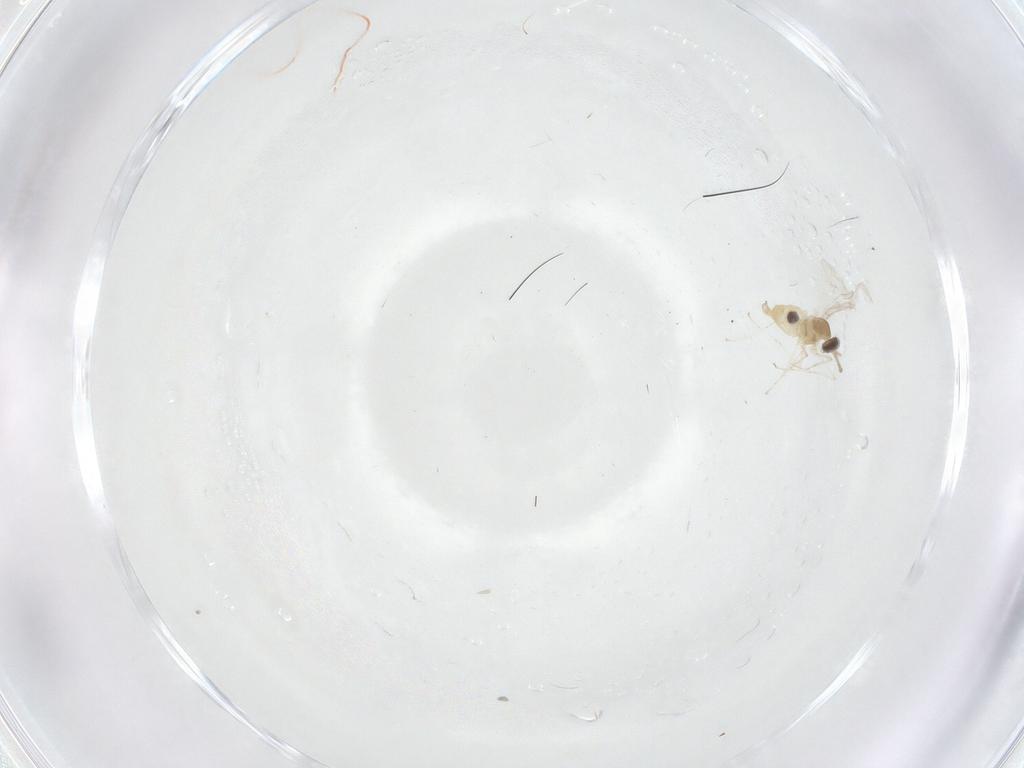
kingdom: Animalia
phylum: Arthropoda
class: Insecta
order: Diptera
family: Cecidomyiidae
